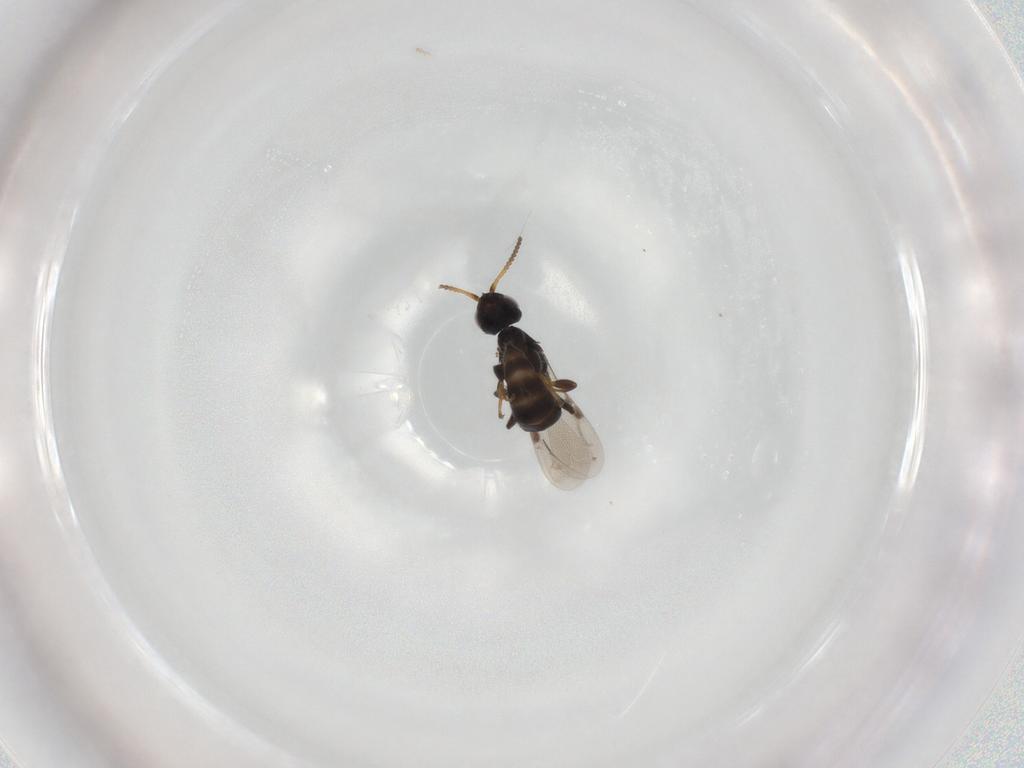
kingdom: Animalia
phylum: Arthropoda
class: Insecta
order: Hymenoptera
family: Bethylidae
